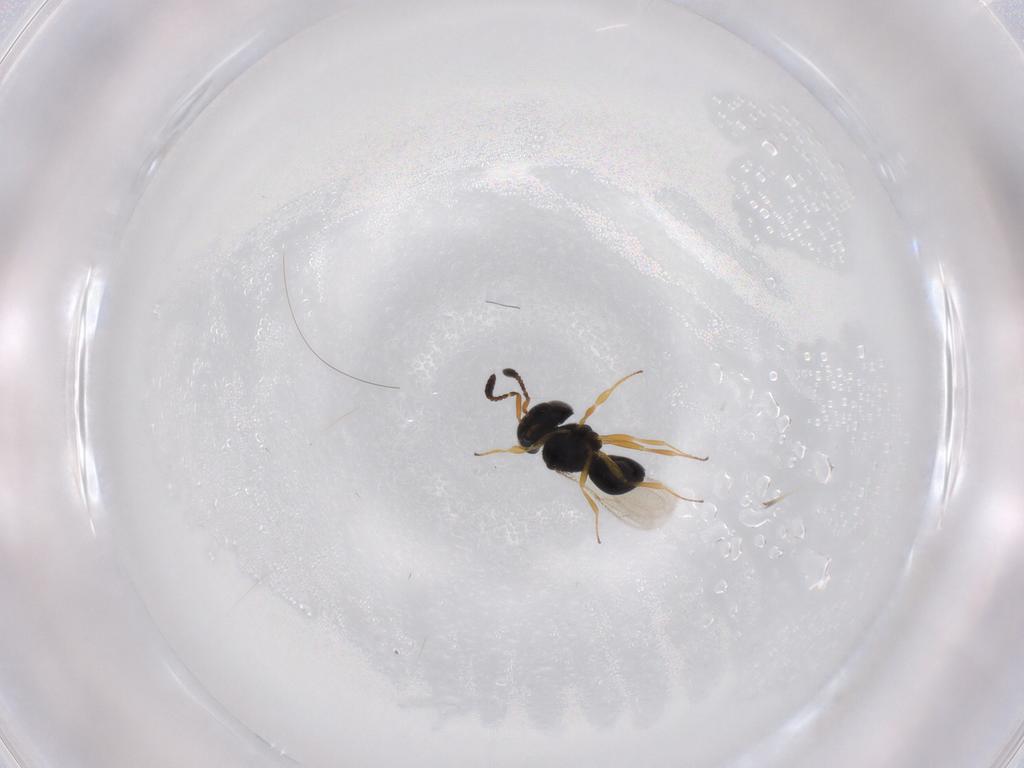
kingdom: Animalia
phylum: Arthropoda
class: Insecta
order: Hymenoptera
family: Scelionidae
